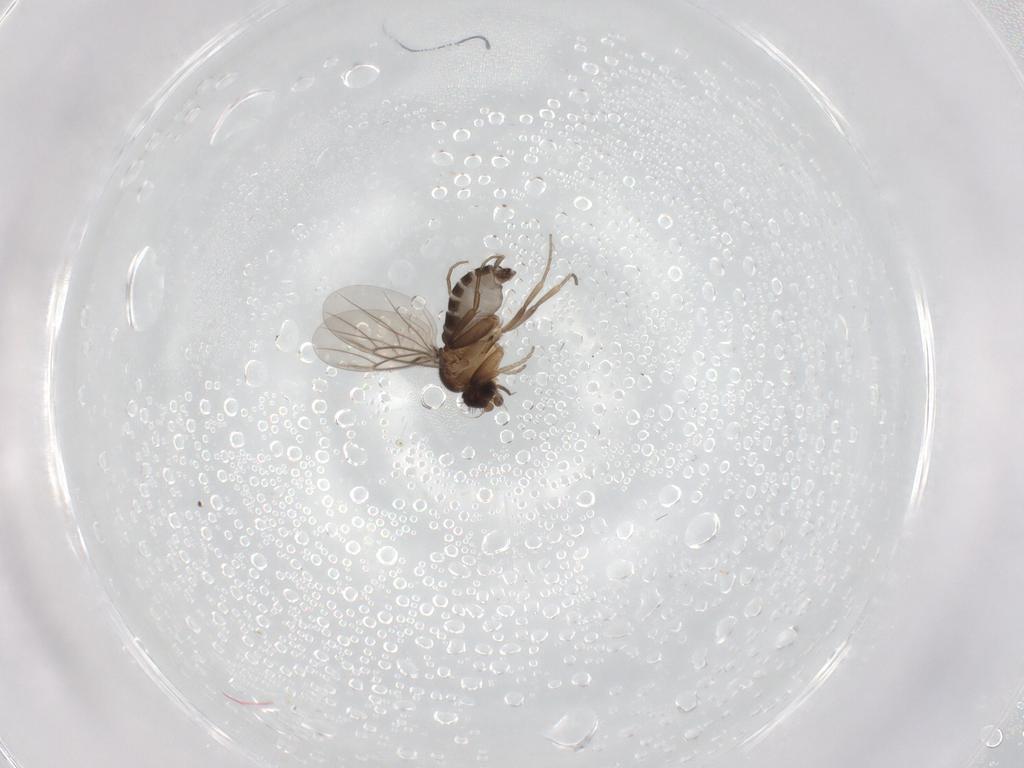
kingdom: Animalia
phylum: Arthropoda
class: Insecta
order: Diptera
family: Phoridae
